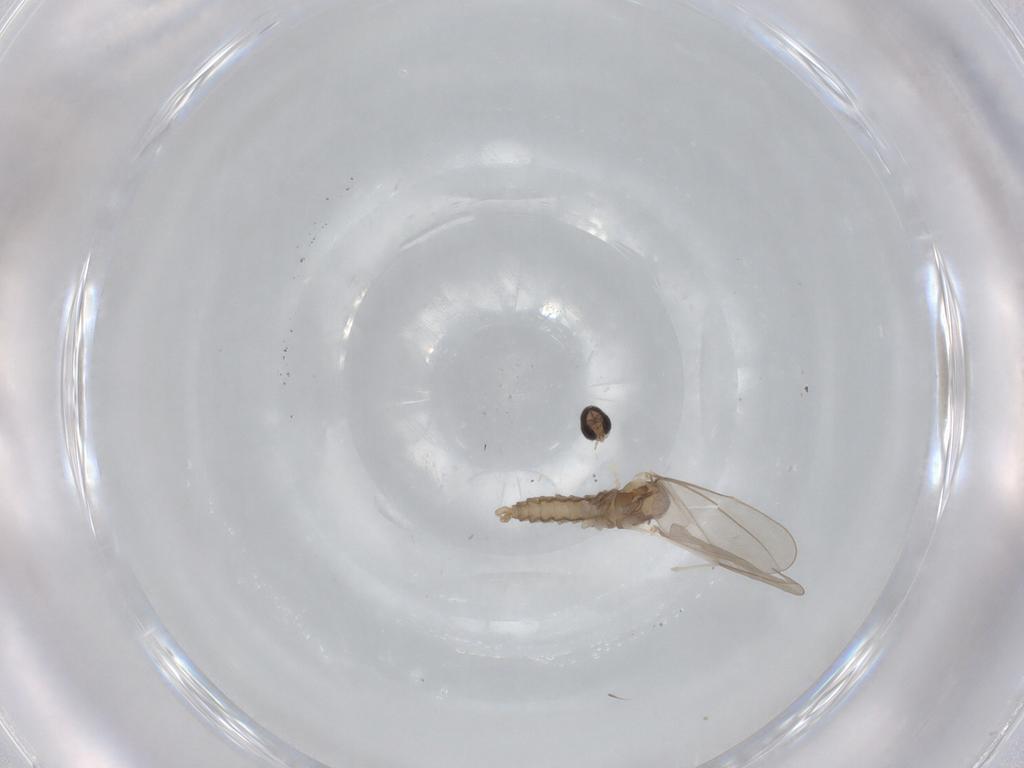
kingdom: Animalia
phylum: Arthropoda
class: Insecta
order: Diptera
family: Cecidomyiidae
